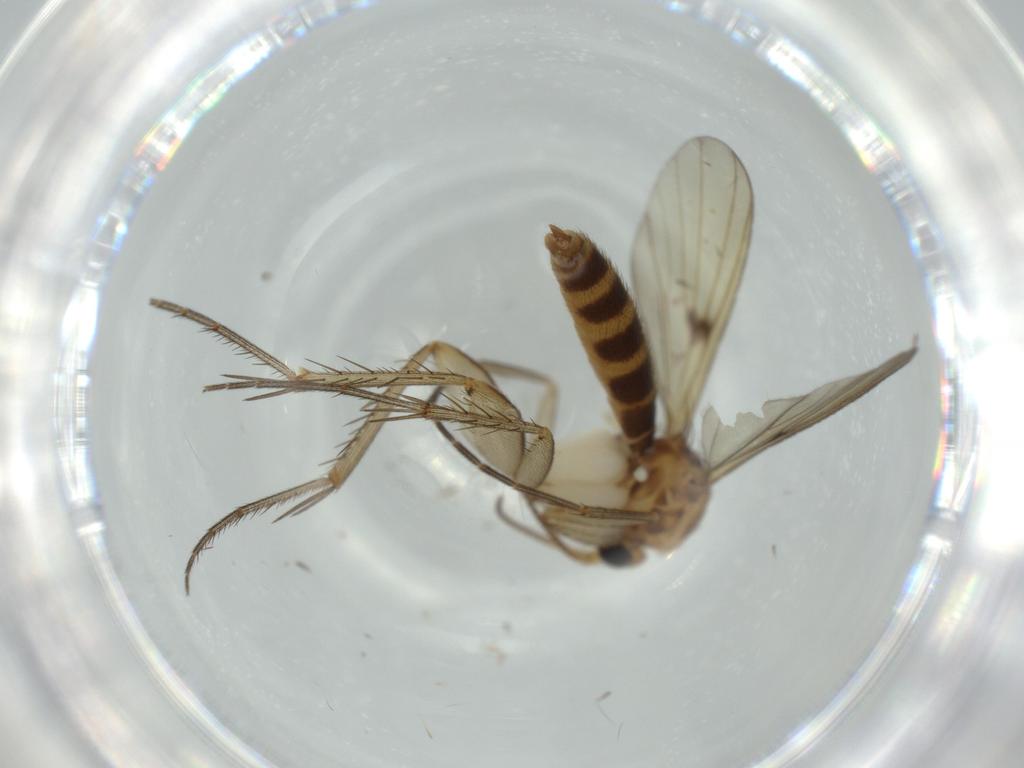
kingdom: Animalia
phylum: Arthropoda
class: Insecta
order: Diptera
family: Dolichopodidae
